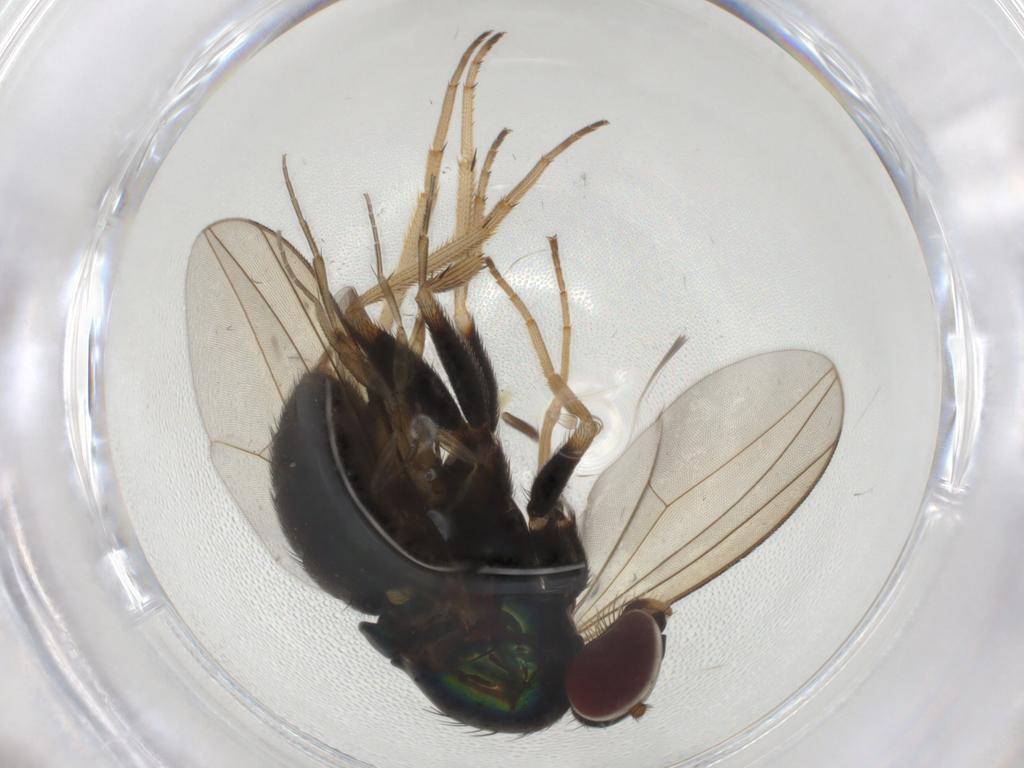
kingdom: Animalia
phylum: Arthropoda
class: Insecta
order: Diptera
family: Dolichopodidae
